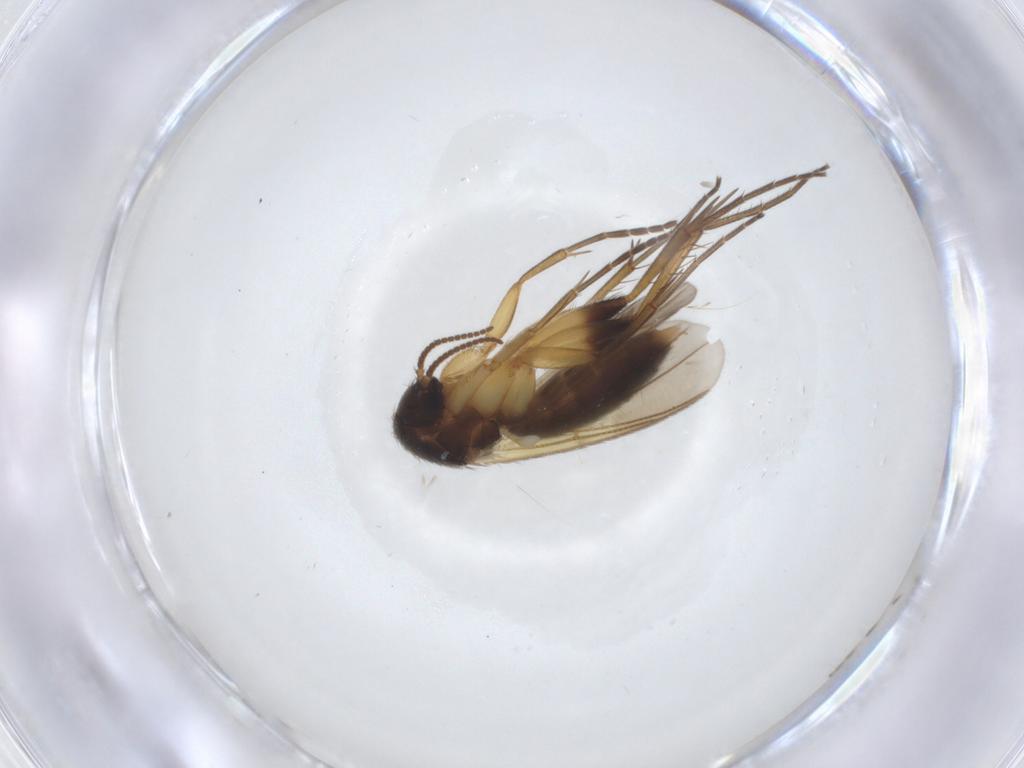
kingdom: Animalia
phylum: Arthropoda
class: Insecta
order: Diptera
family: Mycetophilidae
